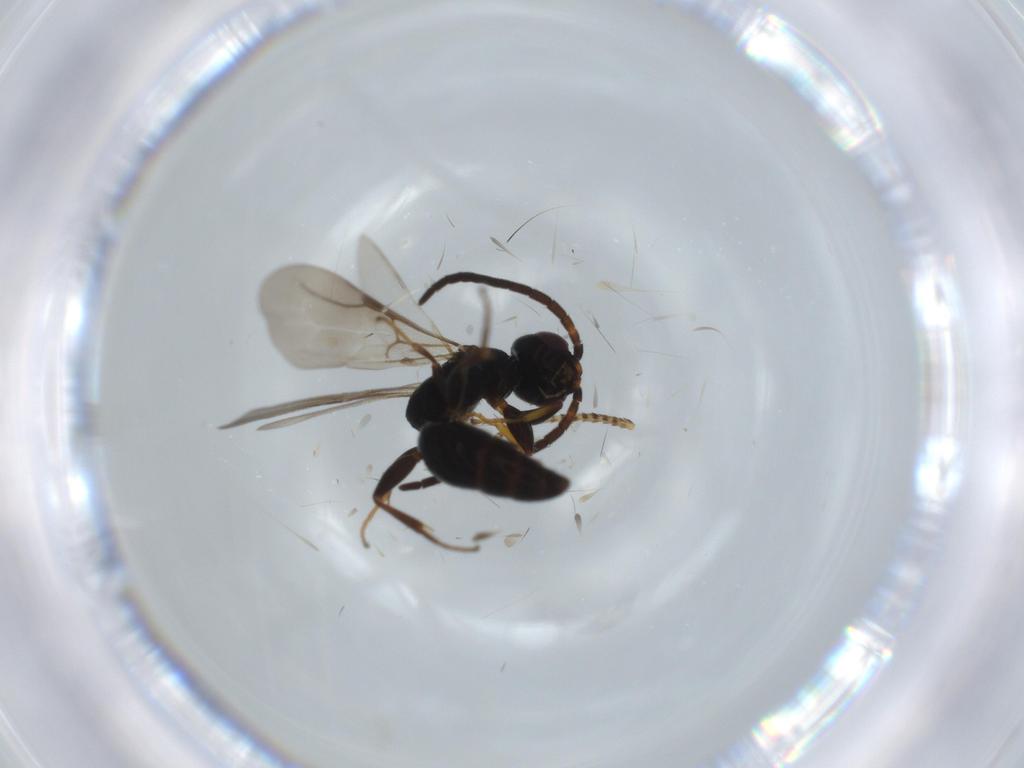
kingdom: Animalia
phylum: Arthropoda
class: Insecta
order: Hymenoptera
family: Bethylidae
